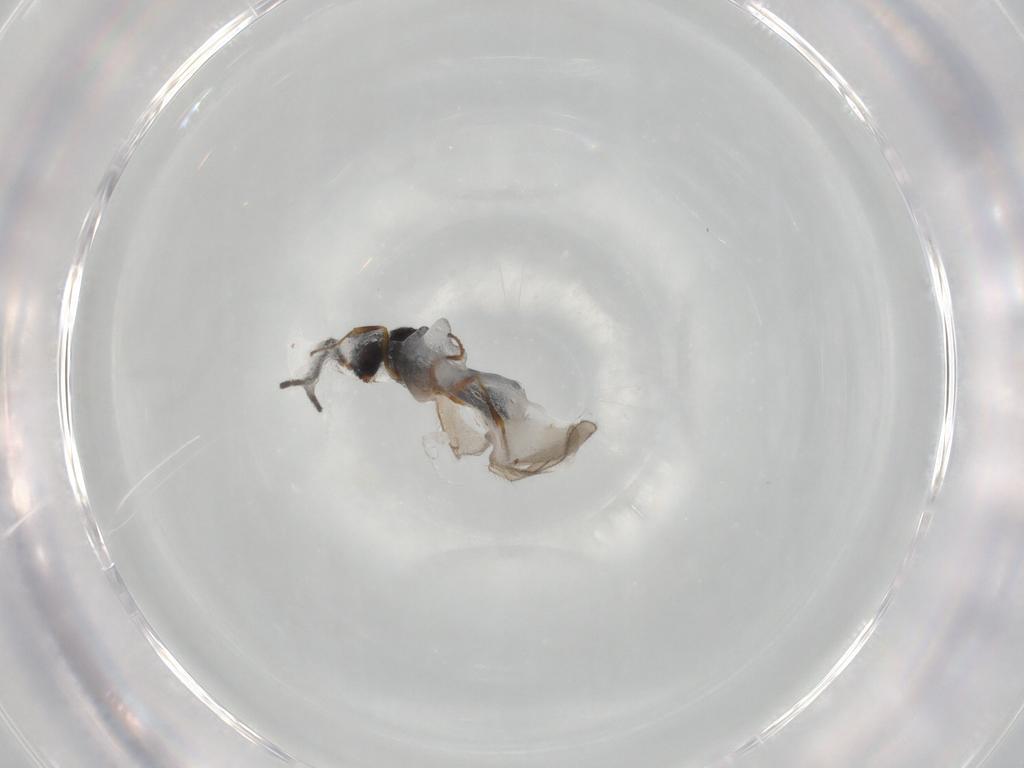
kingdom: Animalia
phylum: Arthropoda
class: Insecta
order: Hymenoptera
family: Scelionidae
